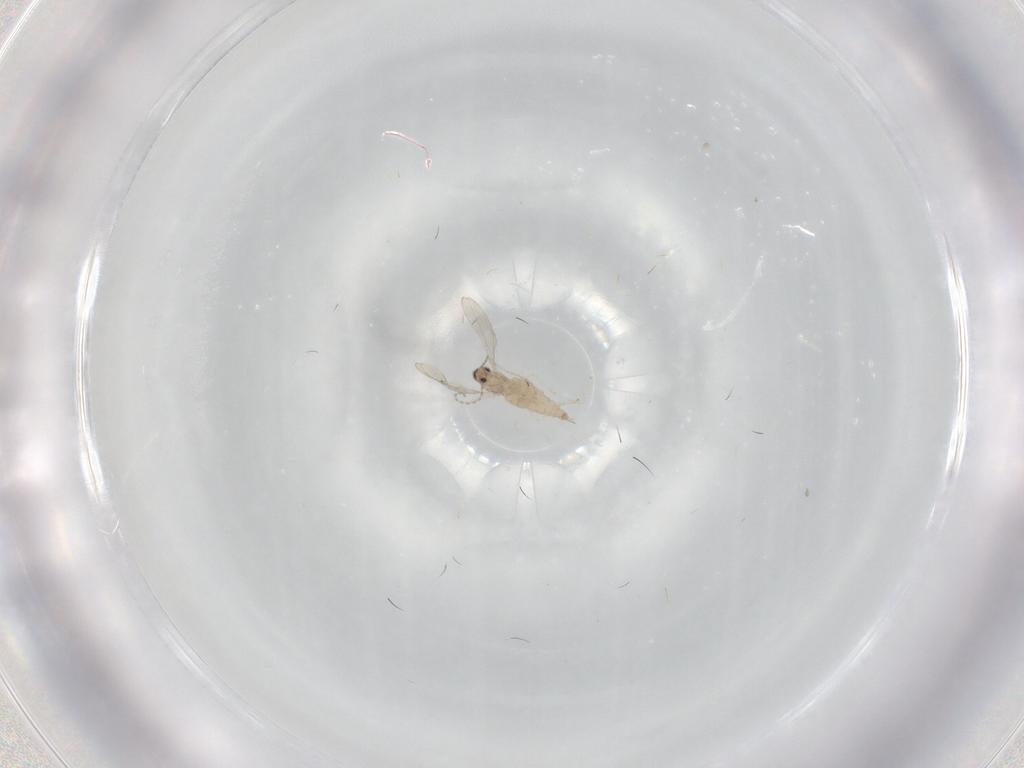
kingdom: Animalia
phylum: Arthropoda
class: Insecta
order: Diptera
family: Cecidomyiidae
